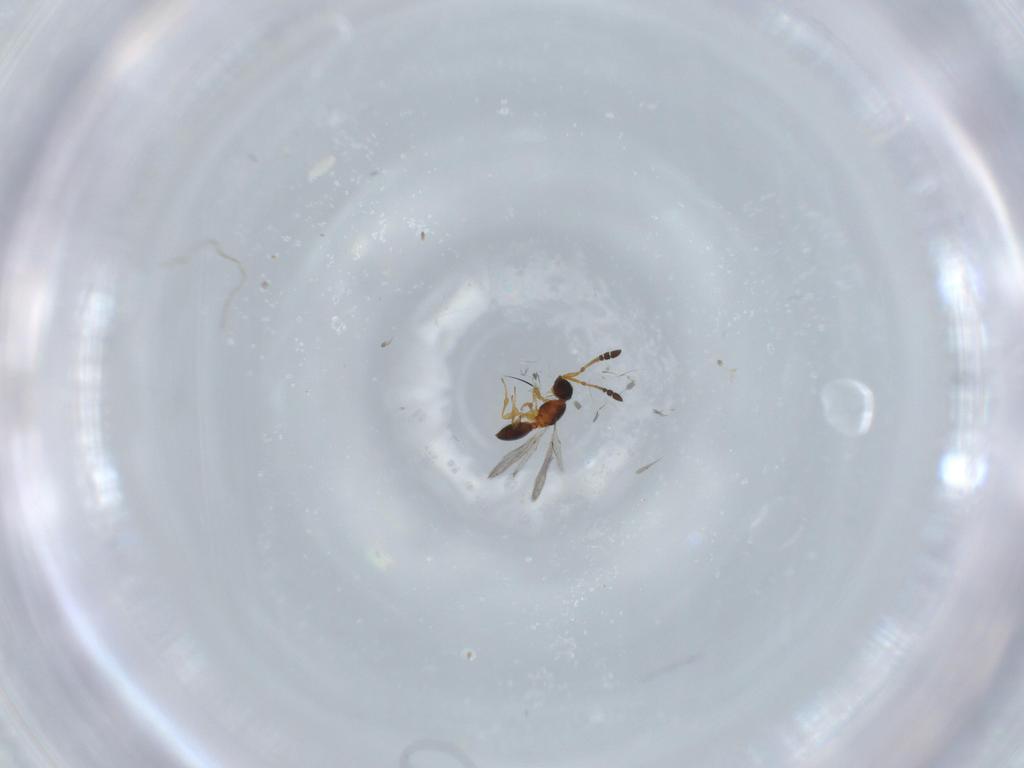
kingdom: Animalia
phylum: Arthropoda
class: Insecta
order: Hymenoptera
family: Diapriidae
